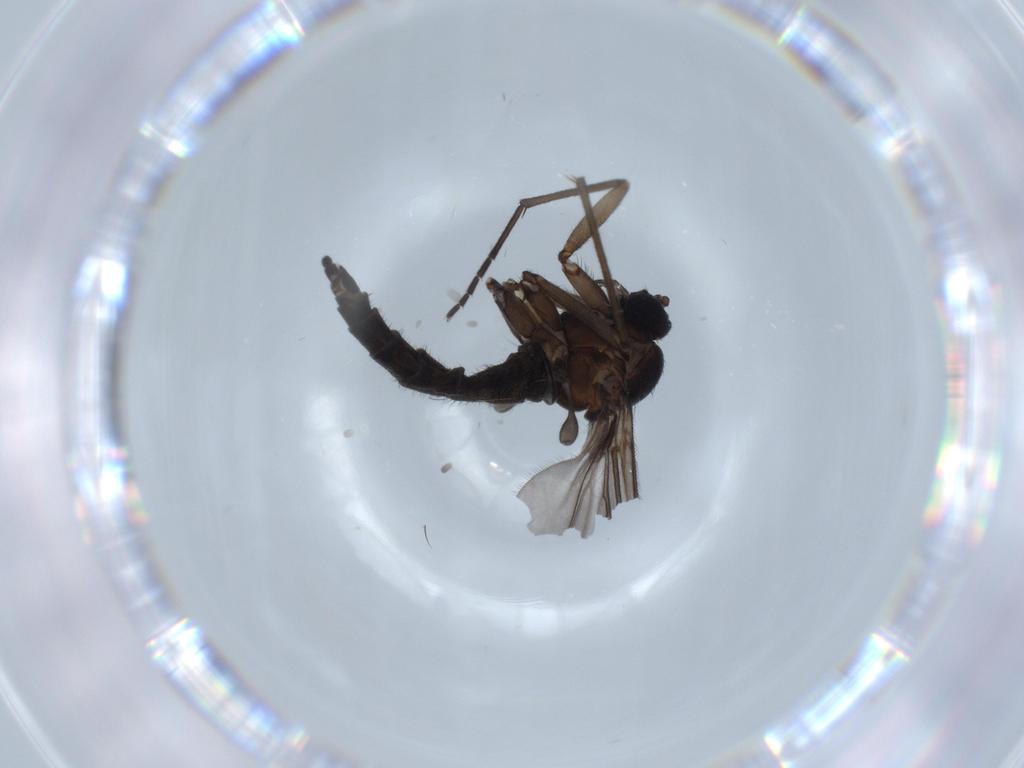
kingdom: Animalia
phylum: Arthropoda
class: Insecta
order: Diptera
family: Sciaridae
